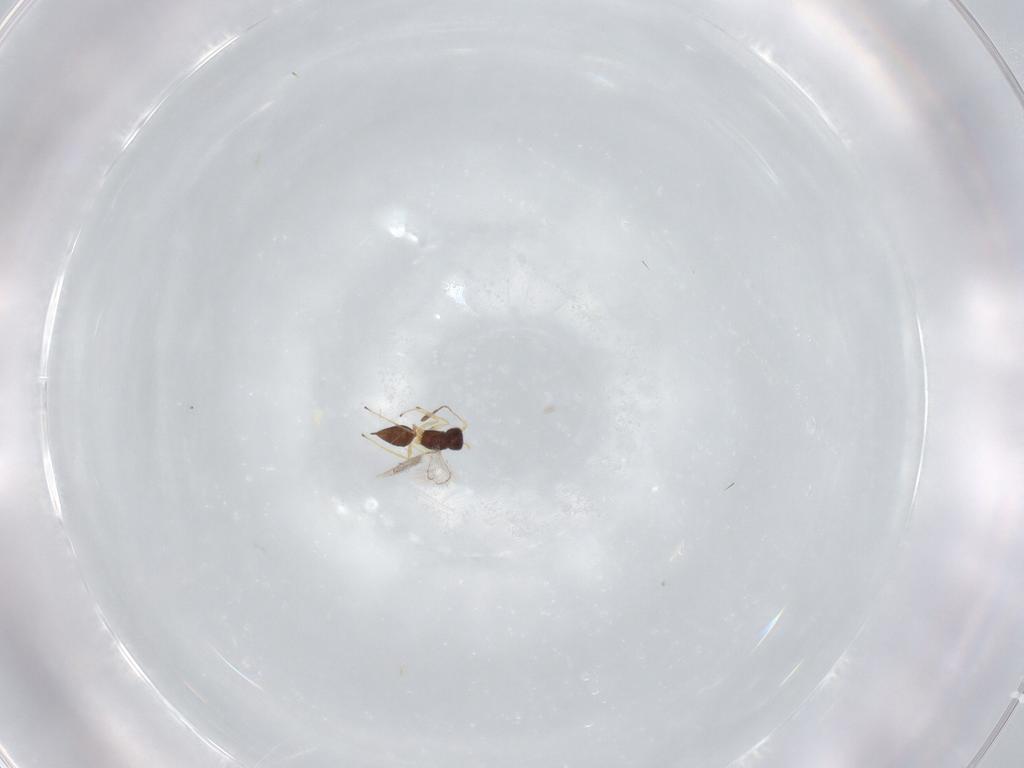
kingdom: Animalia
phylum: Arthropoda
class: Insecta
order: Hymenoptera
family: Mymaridae
